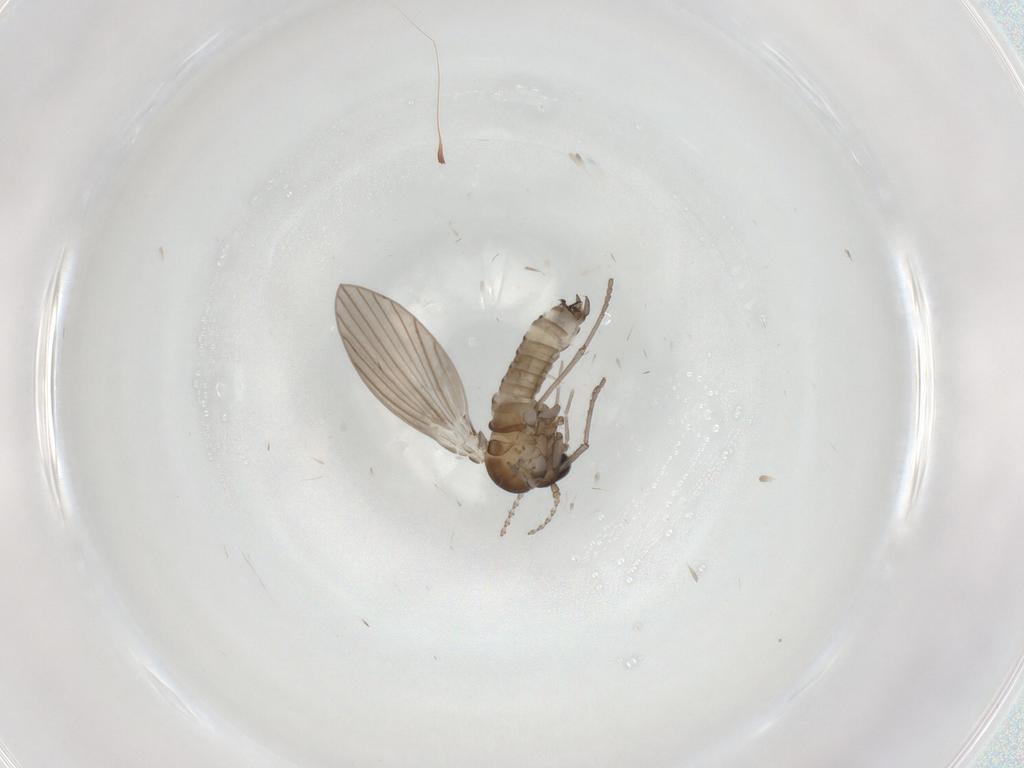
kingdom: Animalia
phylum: Arthropoda
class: Insecta
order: Diptera
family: Psychodidae
